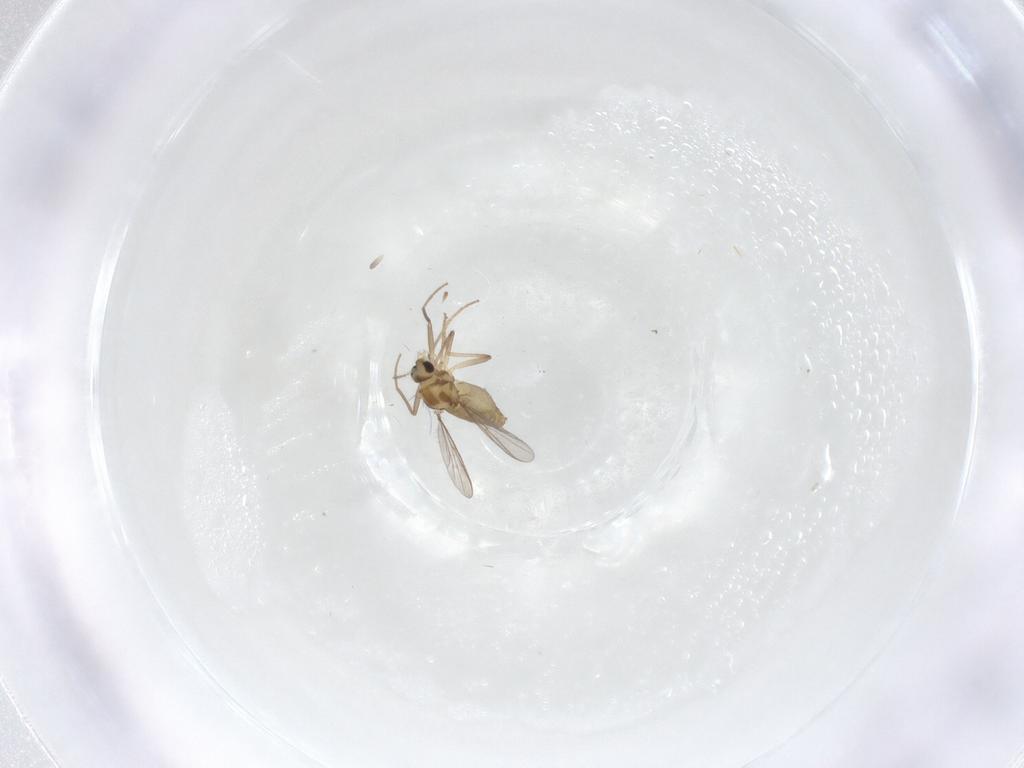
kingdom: Animalia
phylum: Arthropoda
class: Insecta
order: Diptera
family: Chironomidae
